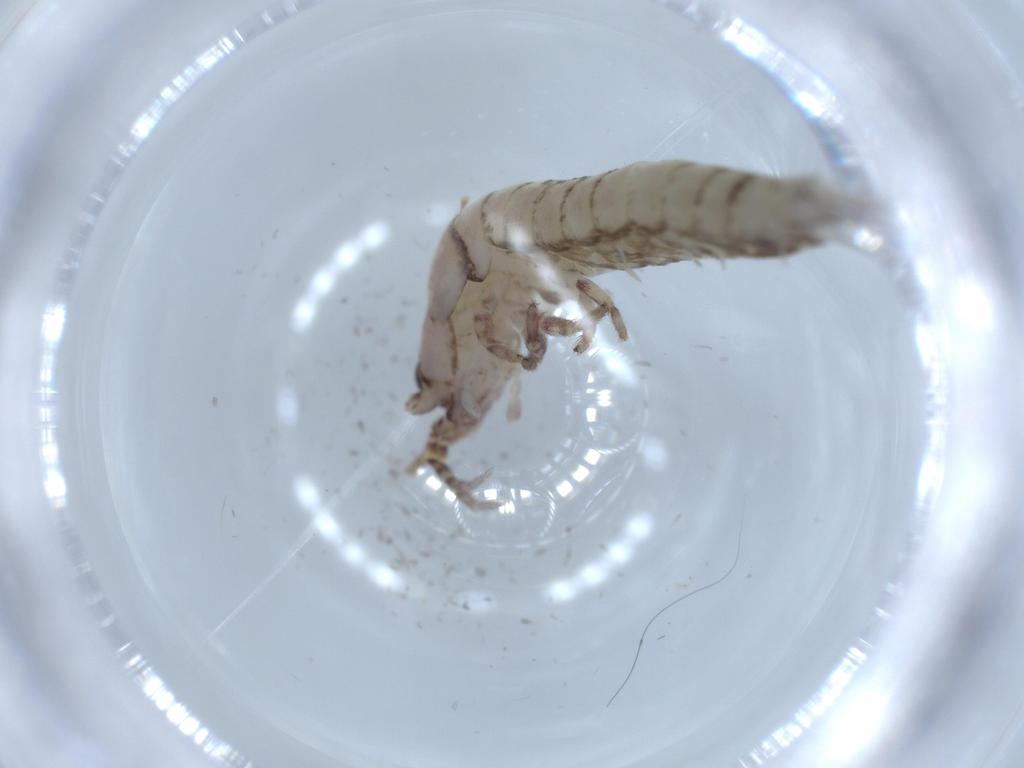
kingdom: Animalia
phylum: Arthropoda
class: Insecta
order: Archaeognatha
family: Machilidae
